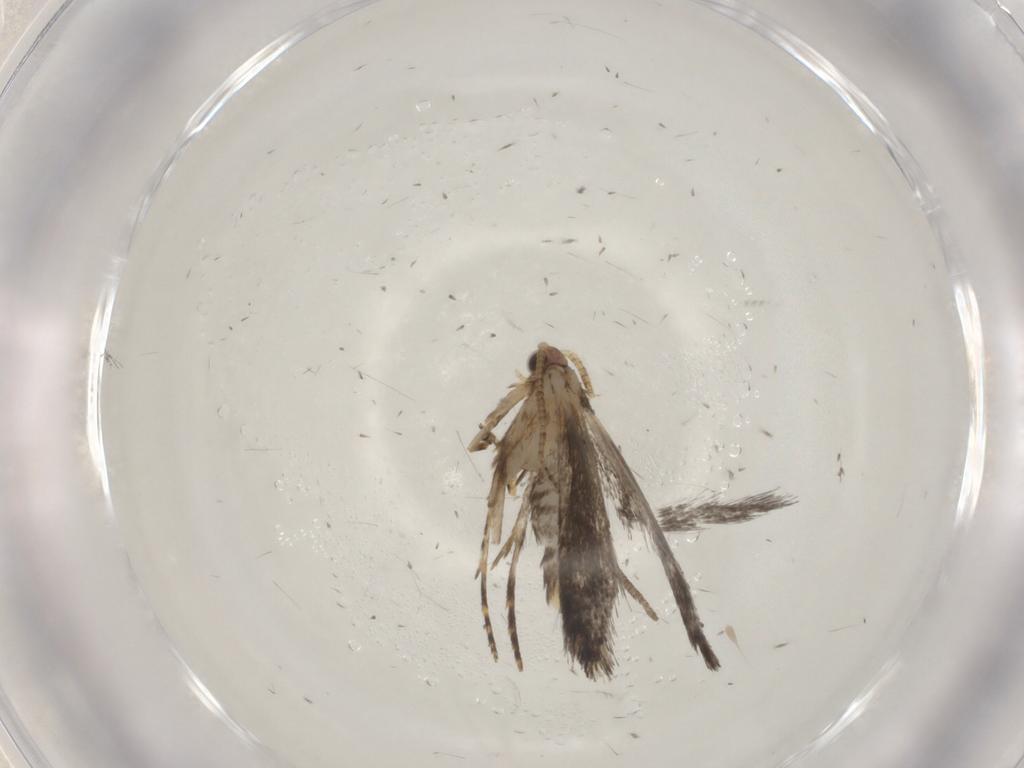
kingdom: Animalia
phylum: Arthropoda
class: Insecta
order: Lepidoptera
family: Tineidae
